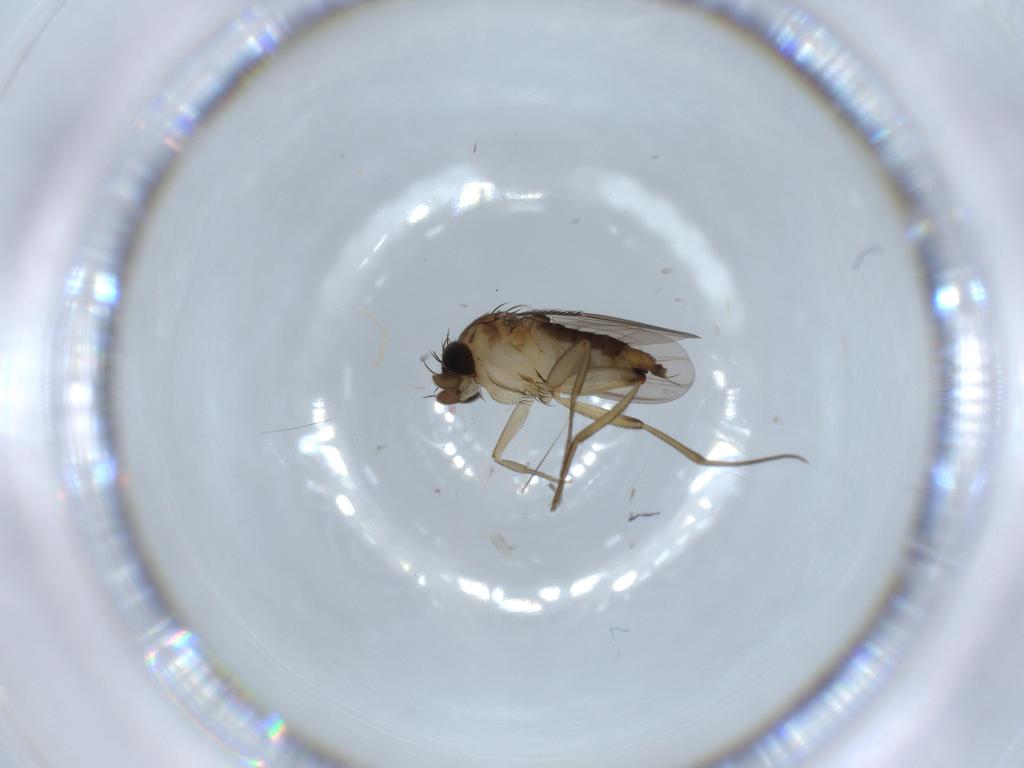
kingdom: Animalia
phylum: Arthropoda
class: Insecta
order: Diptera
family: Phoridae
